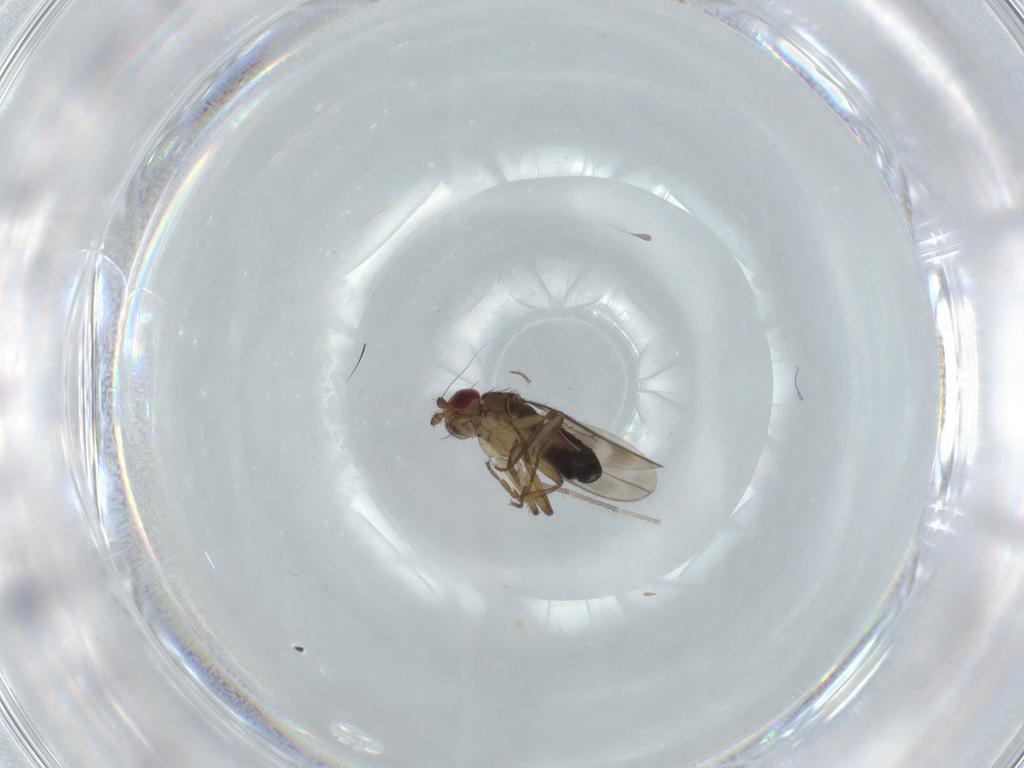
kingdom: Animalia
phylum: Arthropoda
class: Insecta
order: Diptera
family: Sphaeroceridae
